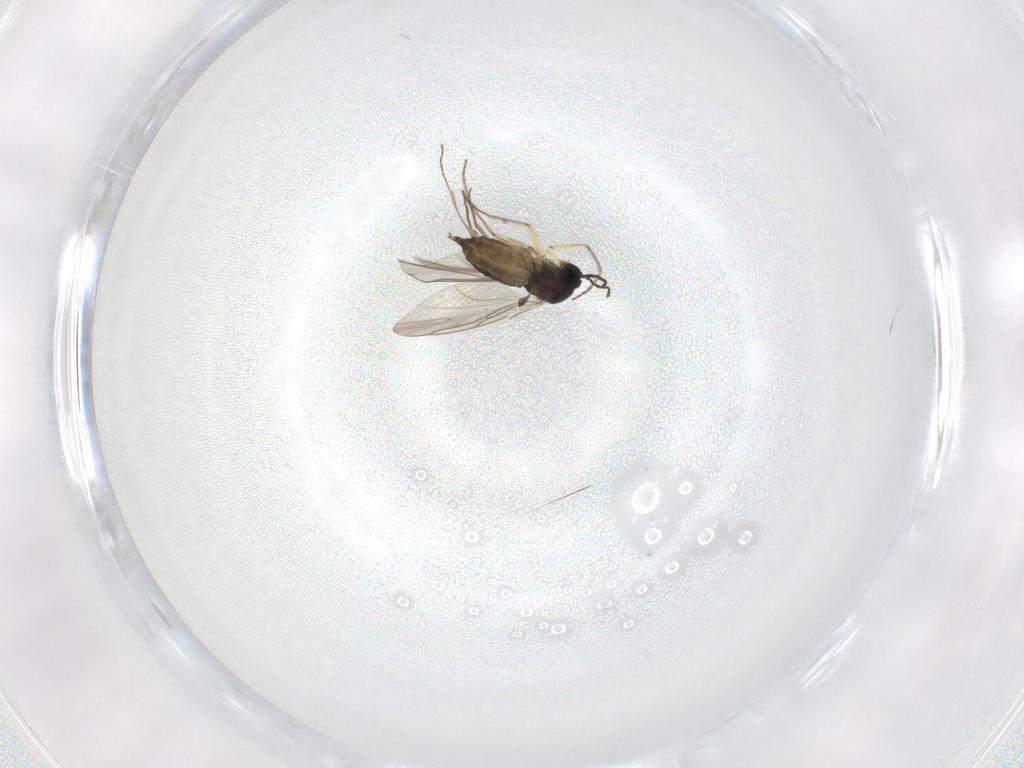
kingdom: Animalia
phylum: Arthropoda
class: Insecta
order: Diptera
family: Sciaridae
